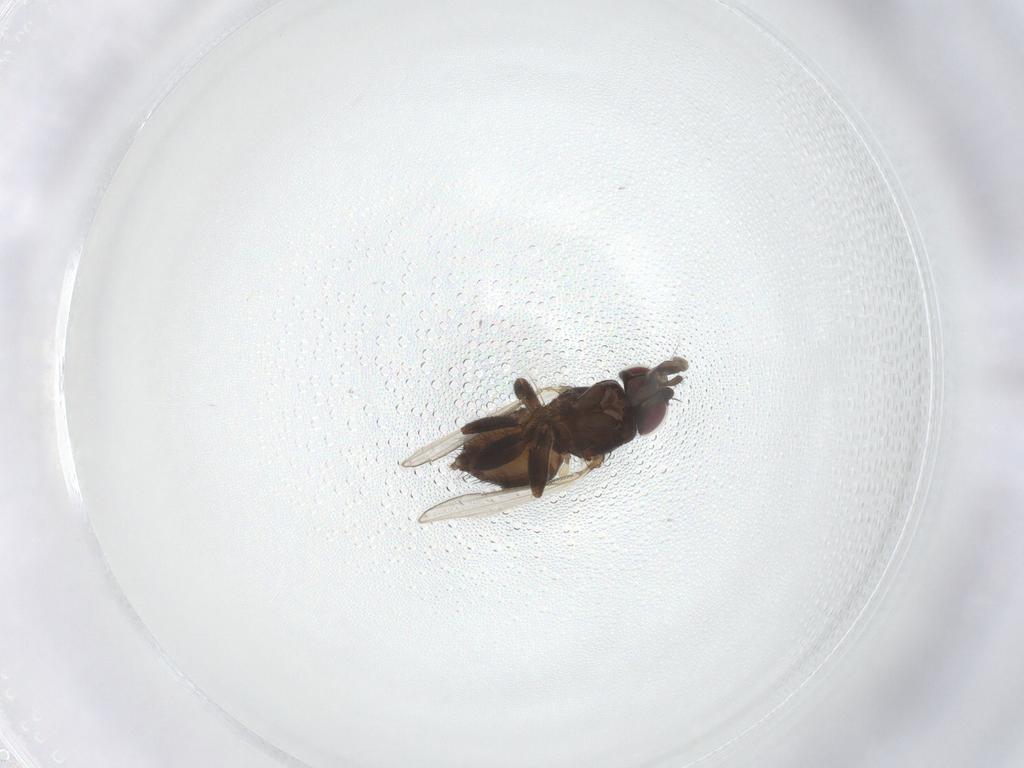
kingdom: Animalia
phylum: Arthropoda
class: Insecta
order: Diptera
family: Milichiidae
